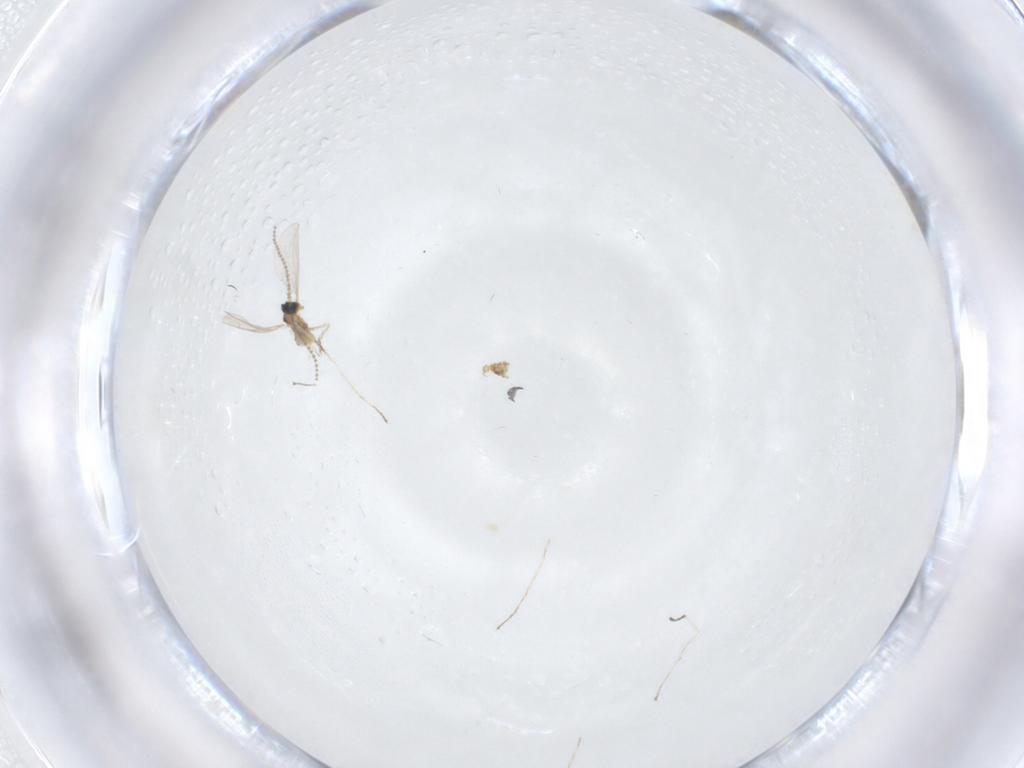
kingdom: Animalia
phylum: Arthropoda
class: Insecta
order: Diptera
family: Cecidomyiidae
